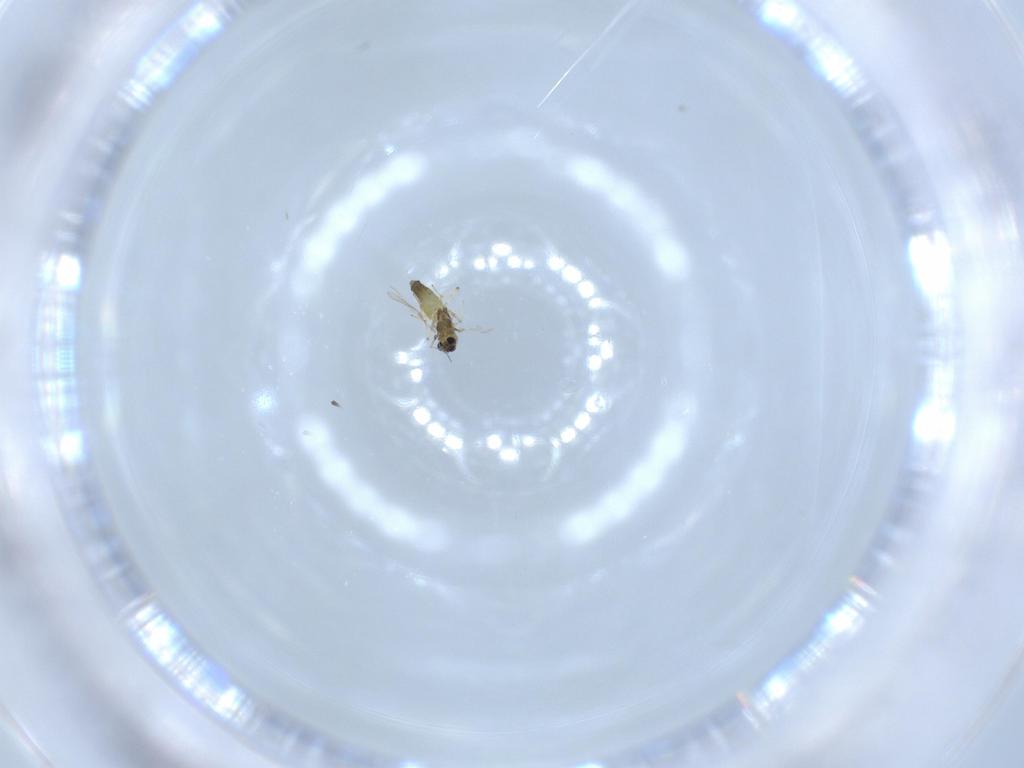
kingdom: Animalia
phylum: Arthropoda
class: Insecta
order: Diptera
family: Chironomidae
